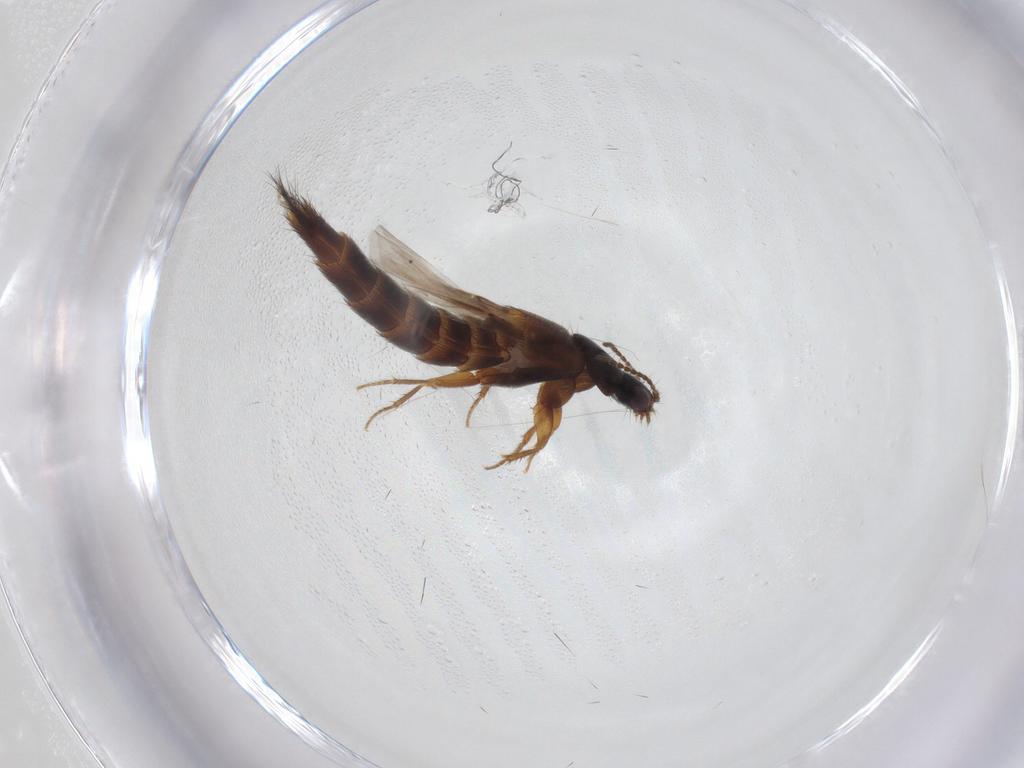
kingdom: Animalia
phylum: Arthropoda
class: Insecta
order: Coleoptera
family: Staphylinidae
